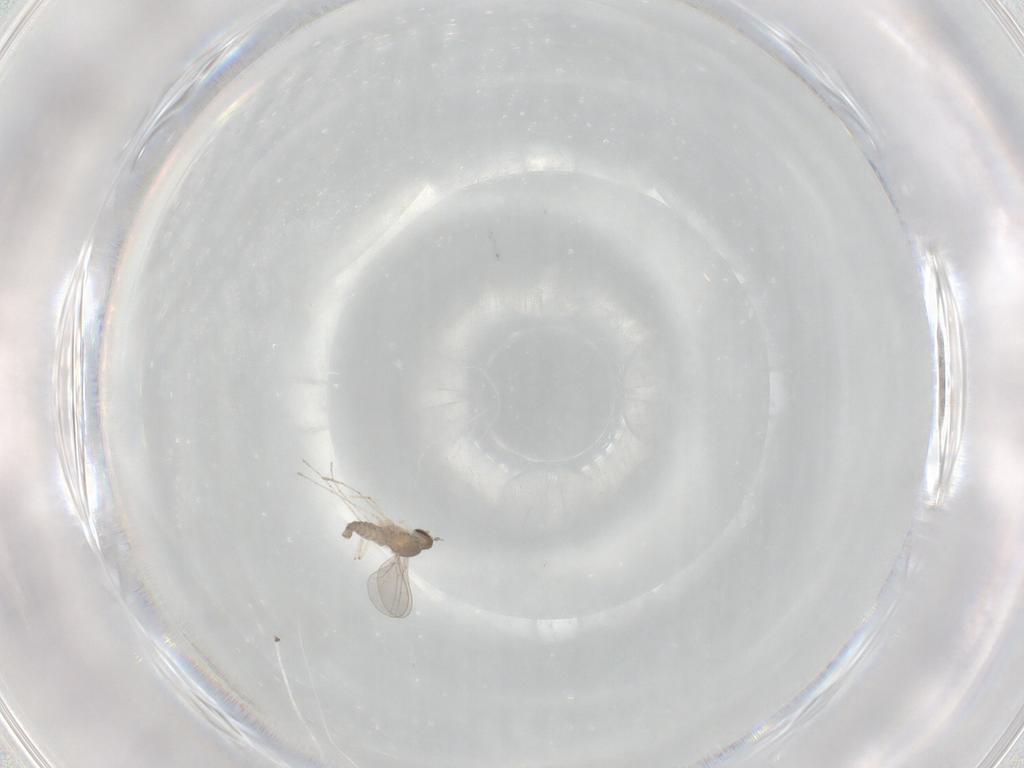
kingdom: Animalia
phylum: Arthropoda
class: Insecta
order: Diptera
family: Cecidomyiidae
